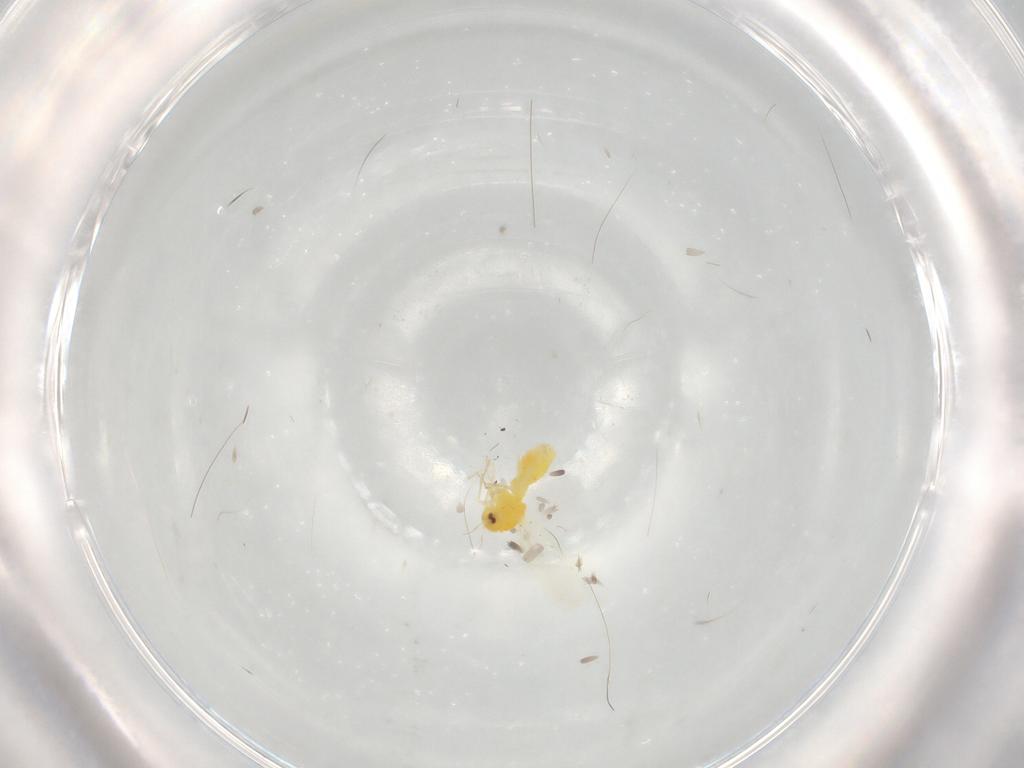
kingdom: Animalia
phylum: Arthropoda
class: Insecta
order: Hemiptera
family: Aleyrodidae
